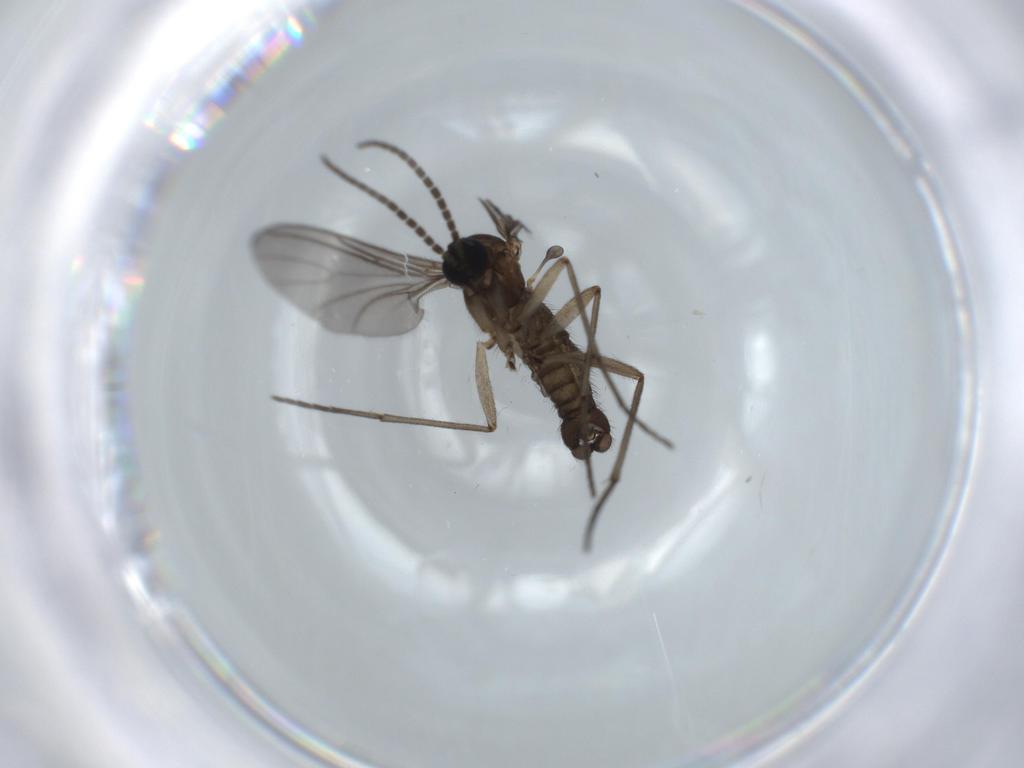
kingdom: Animalia
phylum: Arthropoda
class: Insecta
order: Diptera
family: Sciaridae
